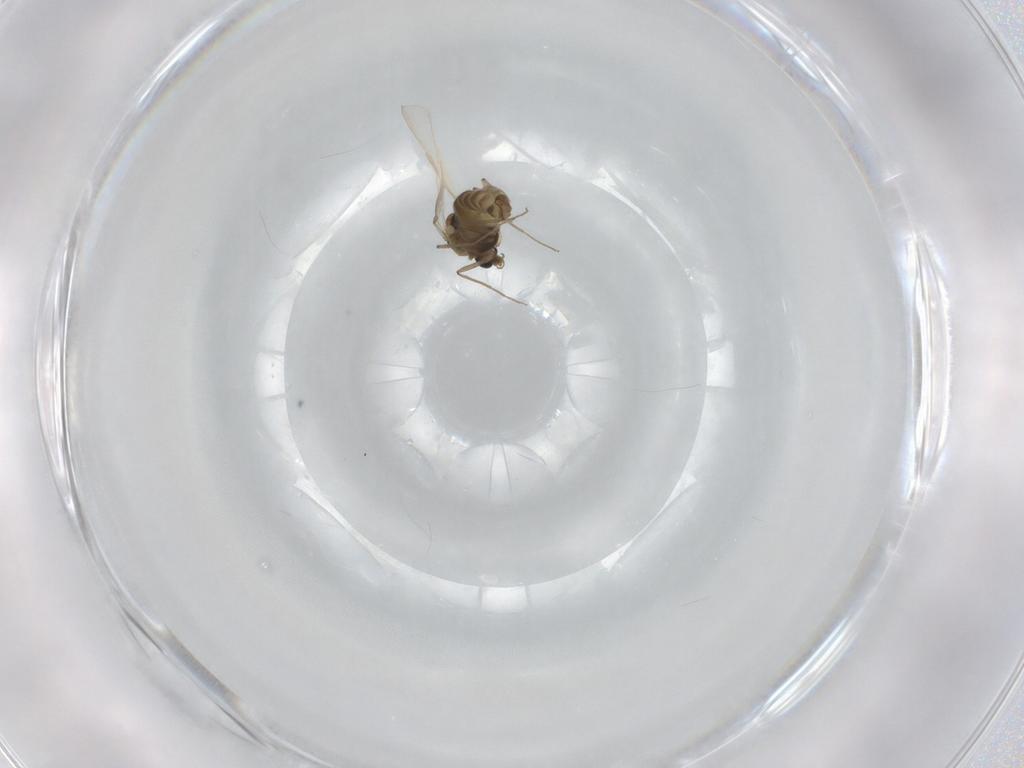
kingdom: Animalia
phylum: Arthropoda
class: Insecta
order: Diptera
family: Chironomidae
